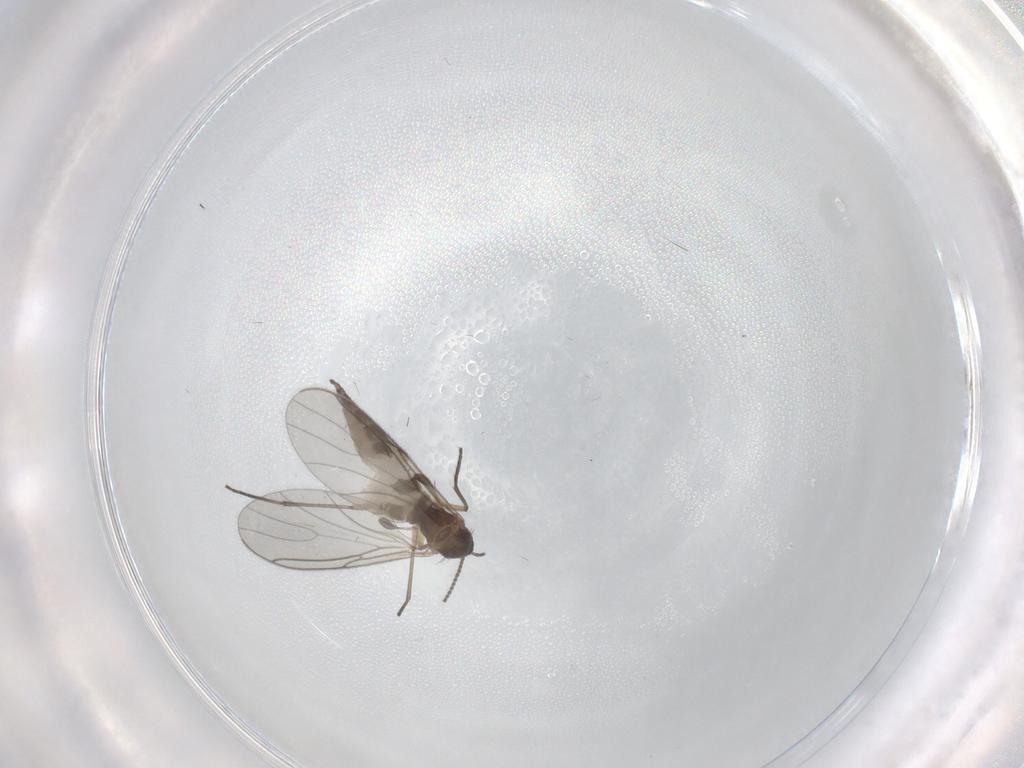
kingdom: Animalia
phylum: Arthropoda
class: Insecta
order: Diptera
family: Sciaridae
